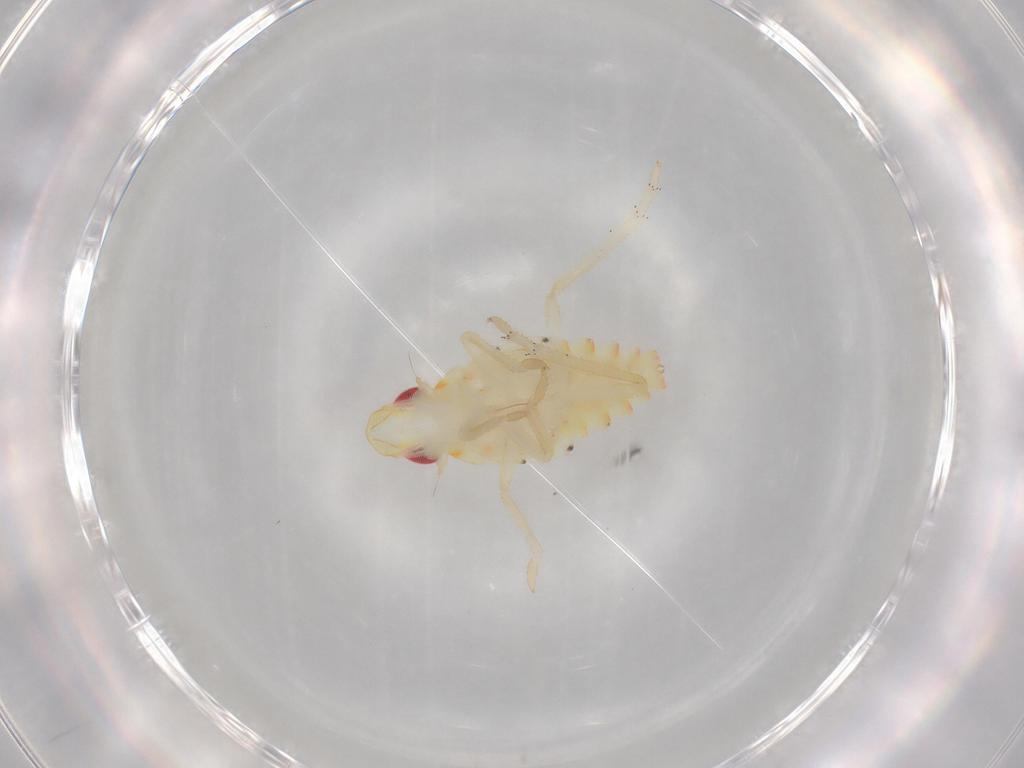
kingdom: Animalia
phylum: Arthropoda
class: Insecta
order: Hemiptera
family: Tropiduchidae
